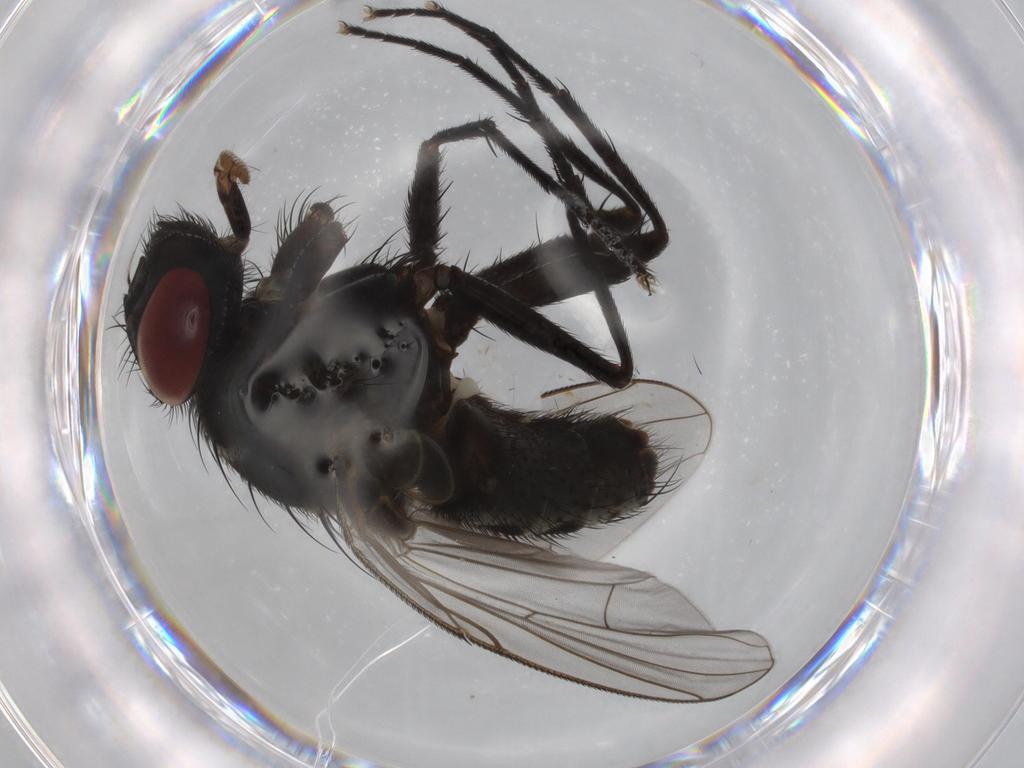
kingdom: Animalia
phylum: Arthropoda
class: Insecta
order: Diptera
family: Muscidae
